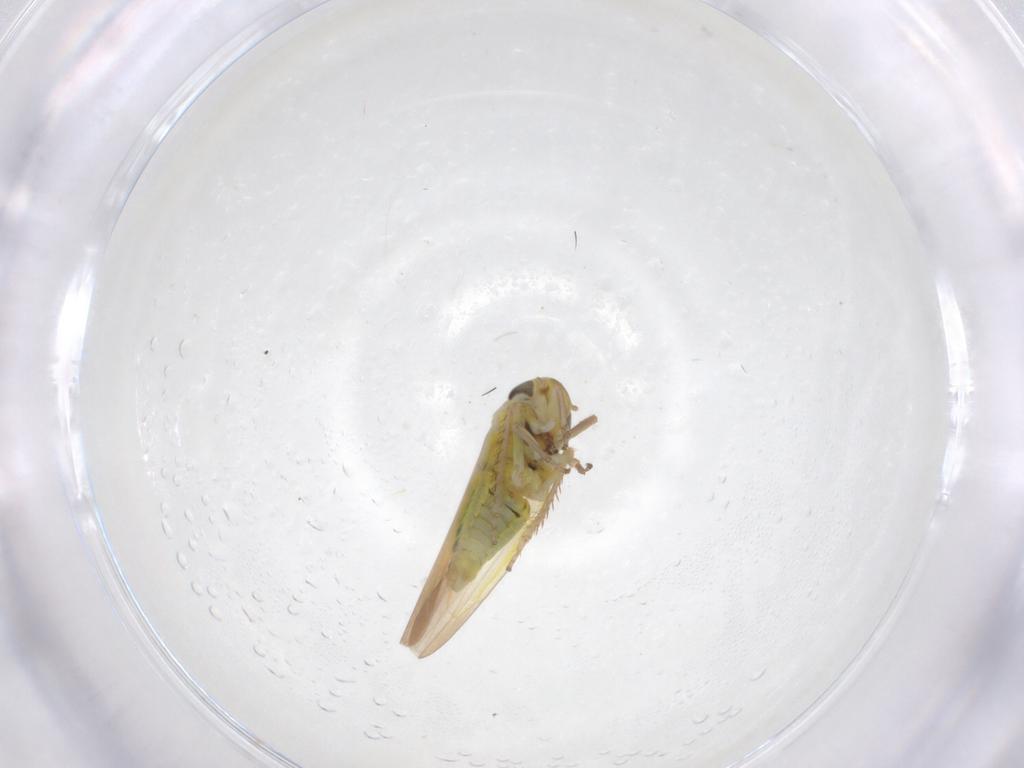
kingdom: Animalia
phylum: Arthropoda
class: Insecta
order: Hemiptera
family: Cicadellidae
